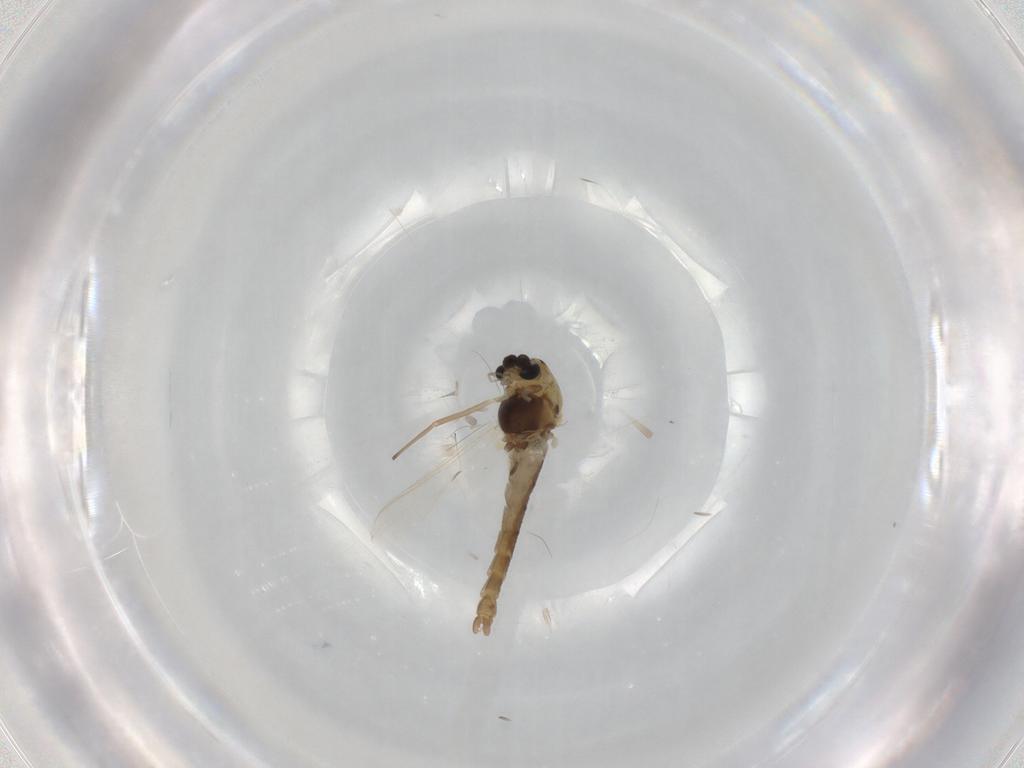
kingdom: Animalia
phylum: Arthropoda
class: Insecta
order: Diptera
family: Chironomidae
